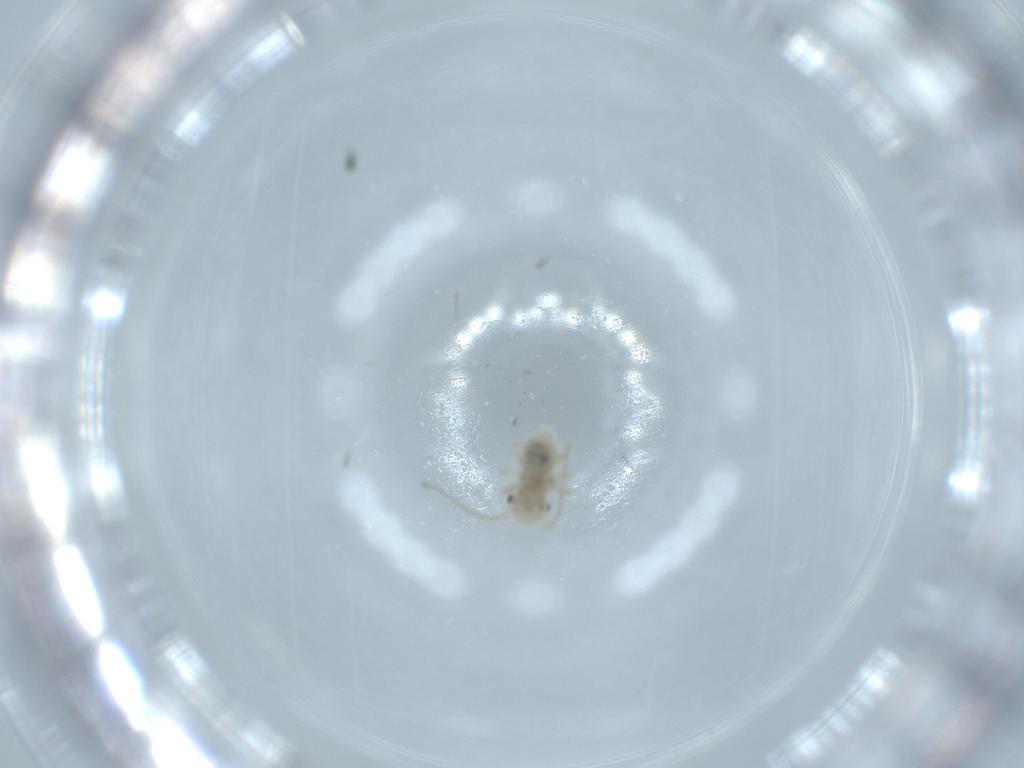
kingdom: Animalia
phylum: Arthropoda
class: Insecta
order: Psocodea
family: Amphipsocidae
